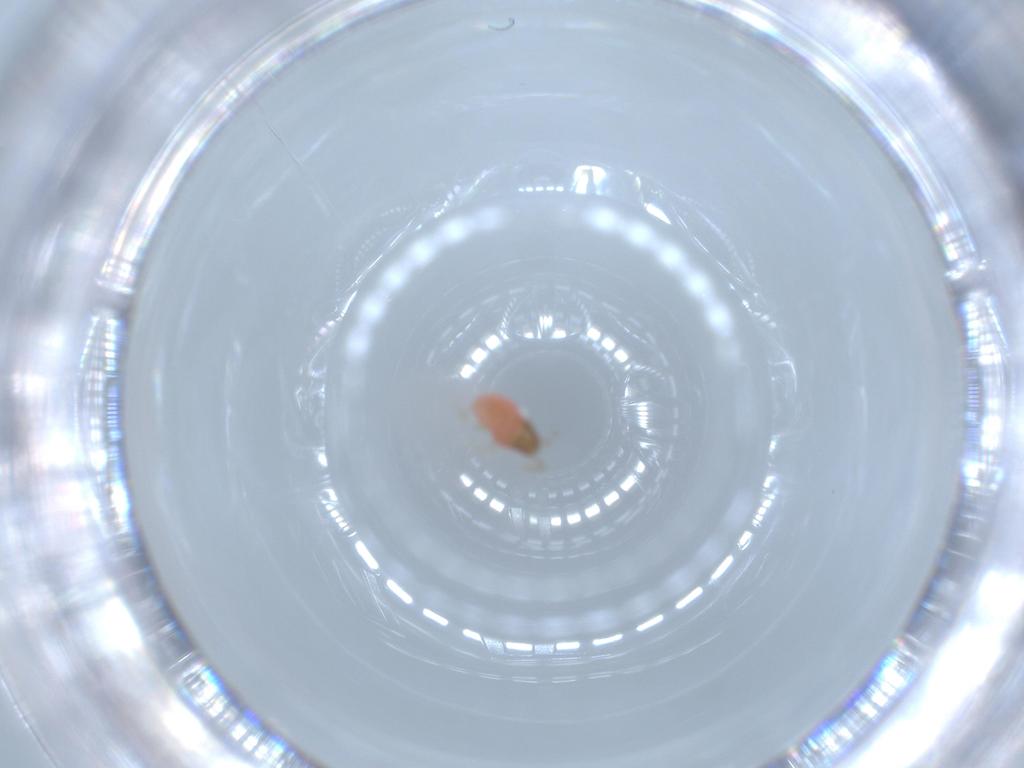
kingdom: Animalia
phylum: Arthropoda
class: Insecta
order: Hemiptera
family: Rhyparochromidae
